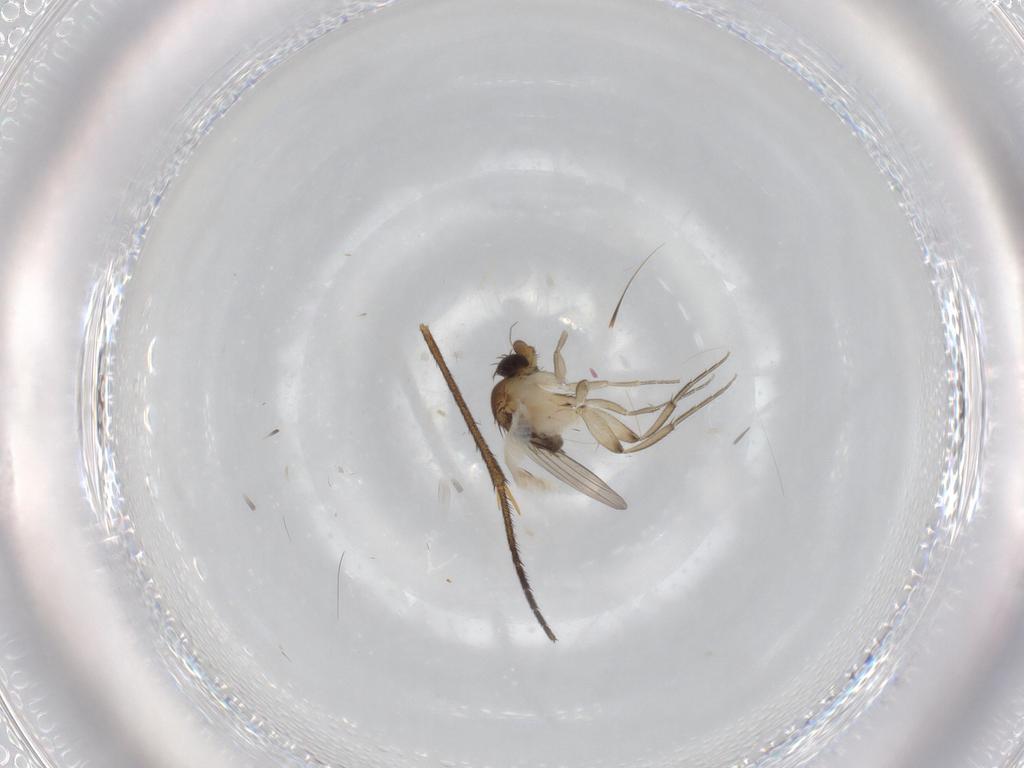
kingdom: Animalia
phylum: Arthropoda
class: Insecta
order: Diptera
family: Phoridae
